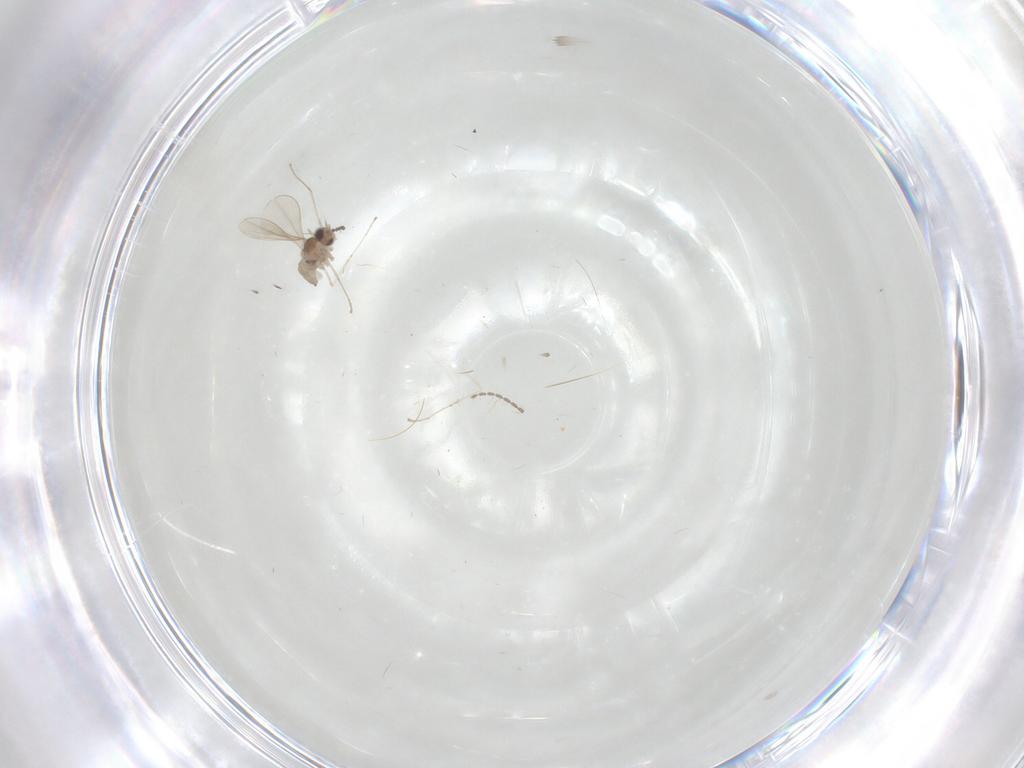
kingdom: Animalia
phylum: Arthropoda
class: Insecta
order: Diptera
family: Cecidomyiidae
